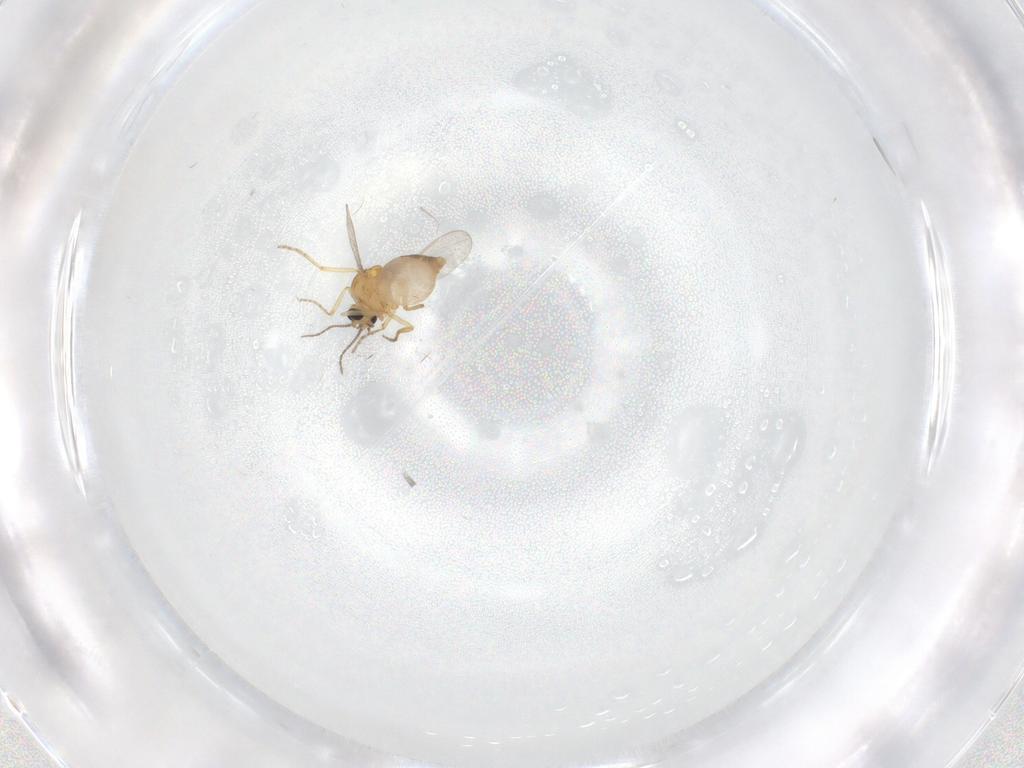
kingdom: Animalia
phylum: Arthropoda
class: Insecta
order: Diptera
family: Ceratopogonidae
